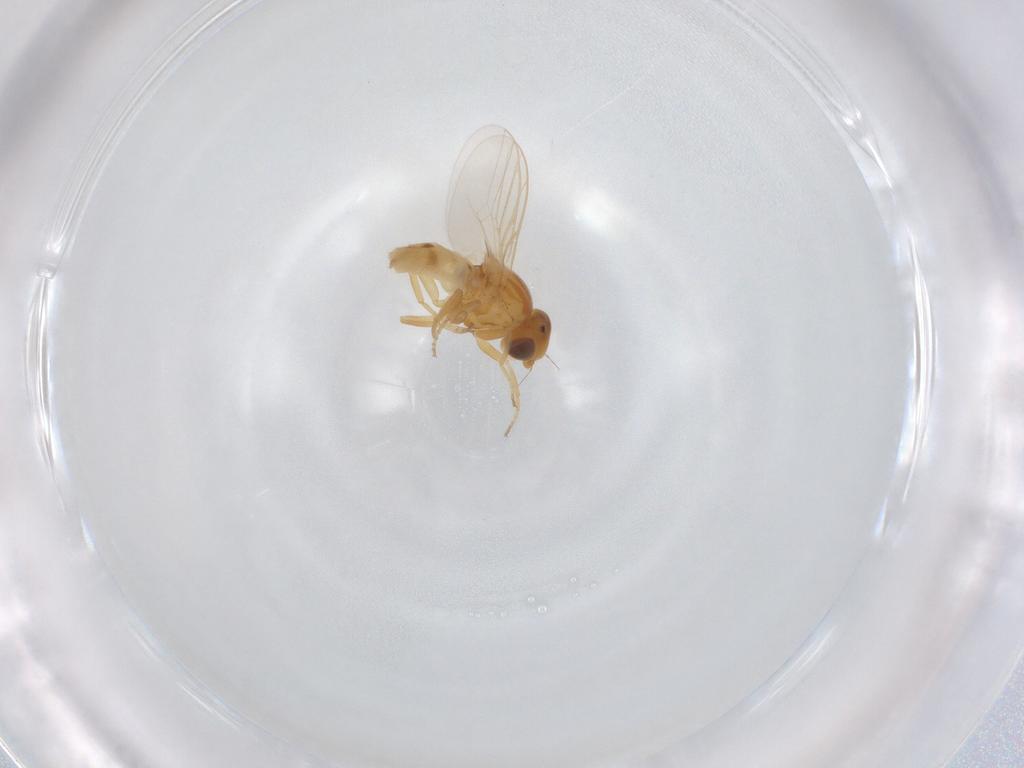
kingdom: Animalia
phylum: Arthropoda
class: Insecta
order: Diptera
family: Chloropidae
